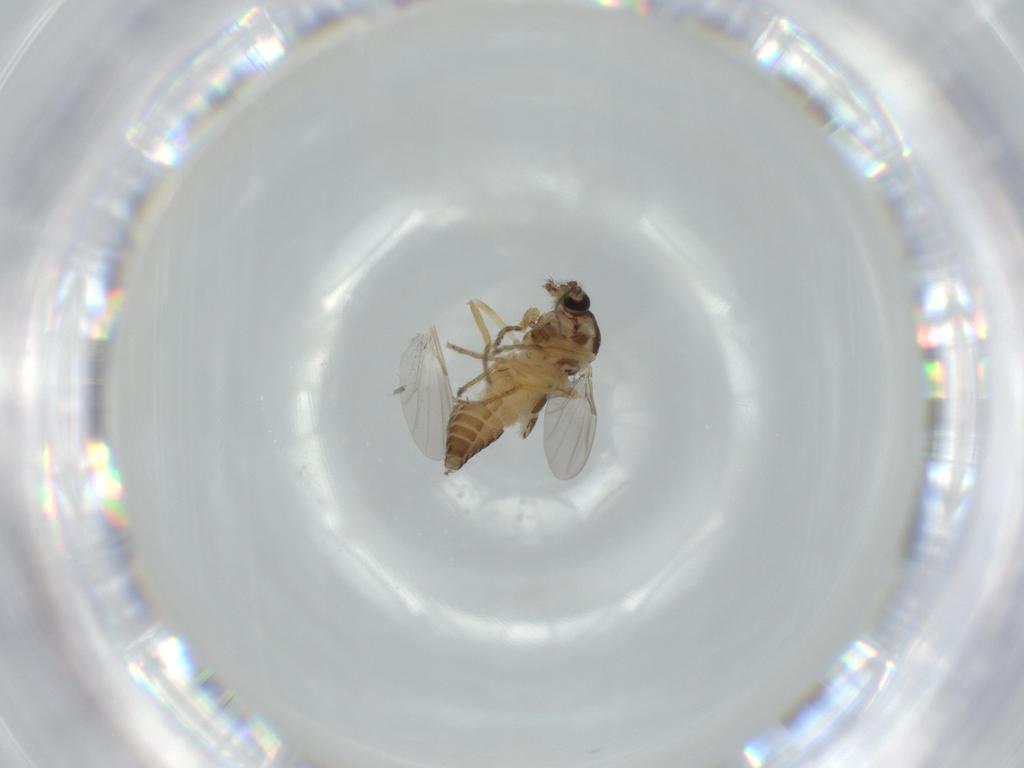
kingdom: Animalia
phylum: Arthropoda
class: Insecta
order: Diptera
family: Ceratopogonidae
